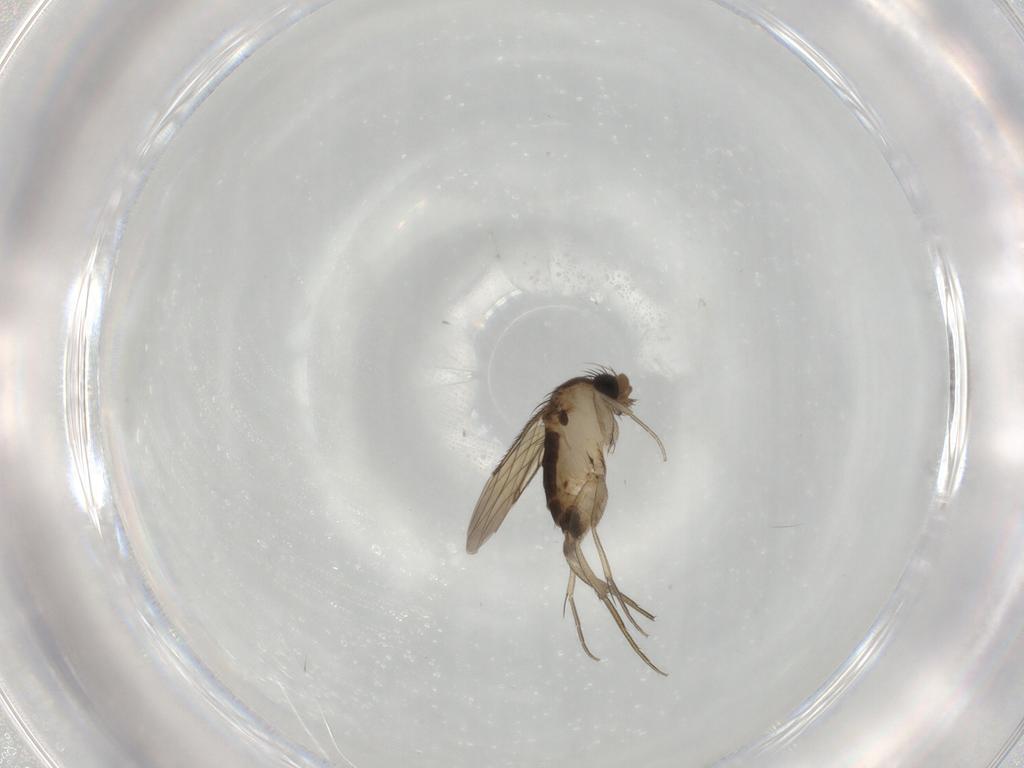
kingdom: Animalia
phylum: Arthropoda
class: Insecta
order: Diptera
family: Phoridae
